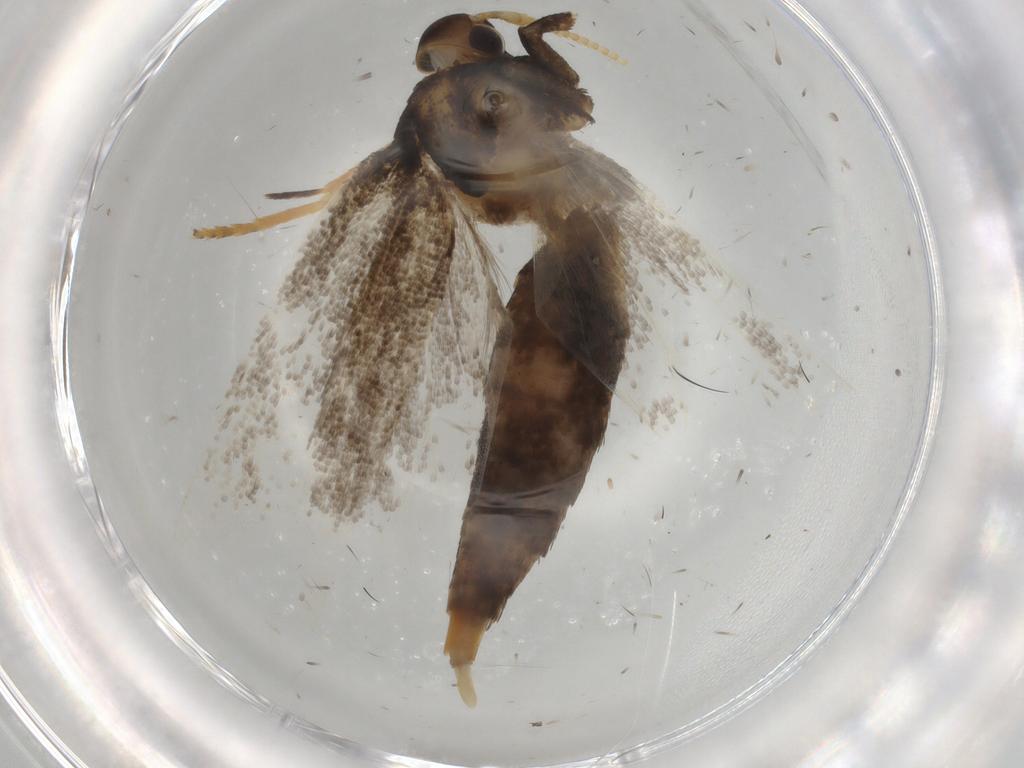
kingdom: Animalia
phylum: Arthropoda
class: Insecta
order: Lepidoptera
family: Lecithoceridae
